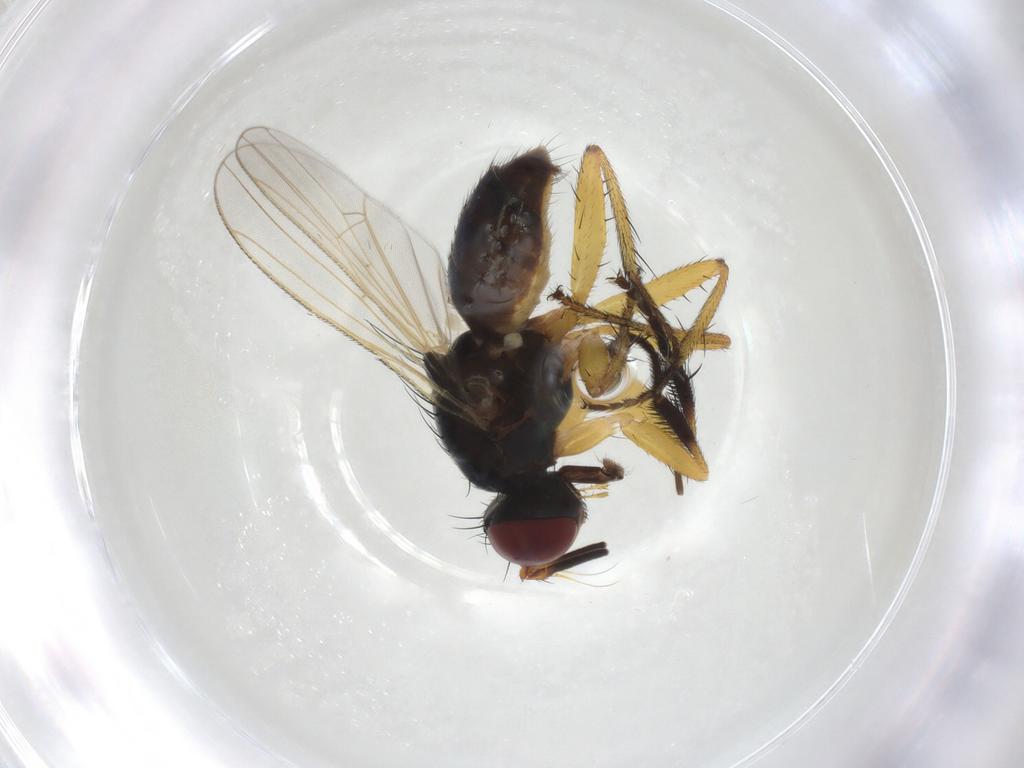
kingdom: Animalia
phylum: Arthropoda
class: Insecta
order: Diptera
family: Muscidae
